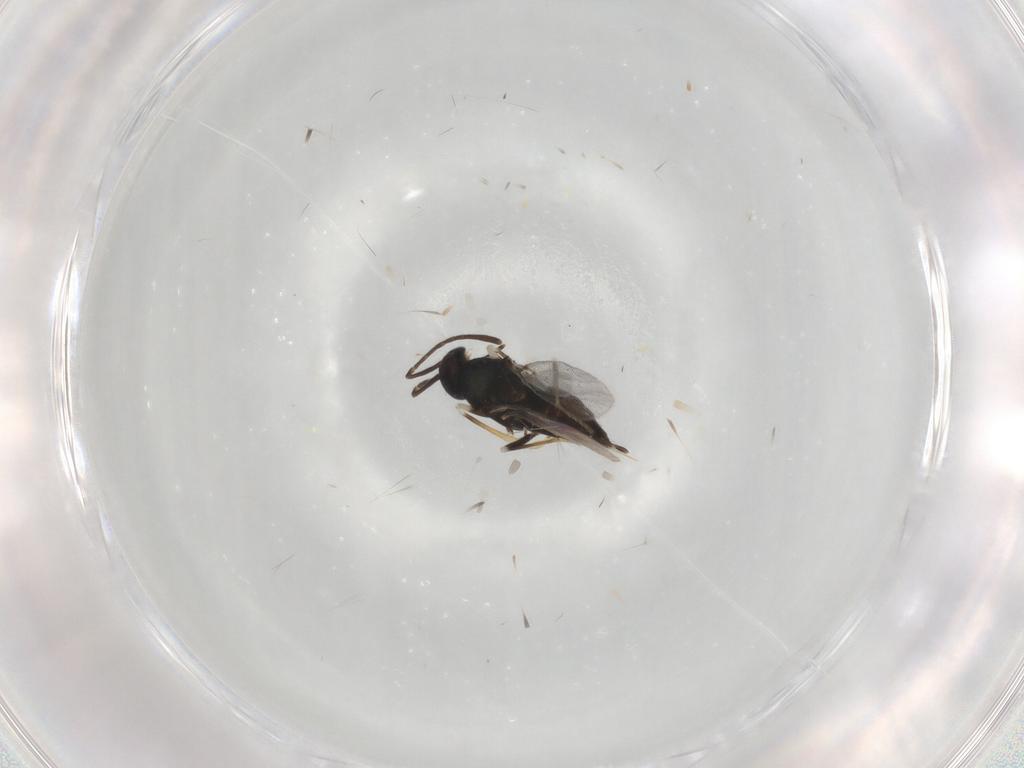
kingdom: Animalia
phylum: Arthropoda
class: Insecta
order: Hymenoptera
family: Encyrtidae
